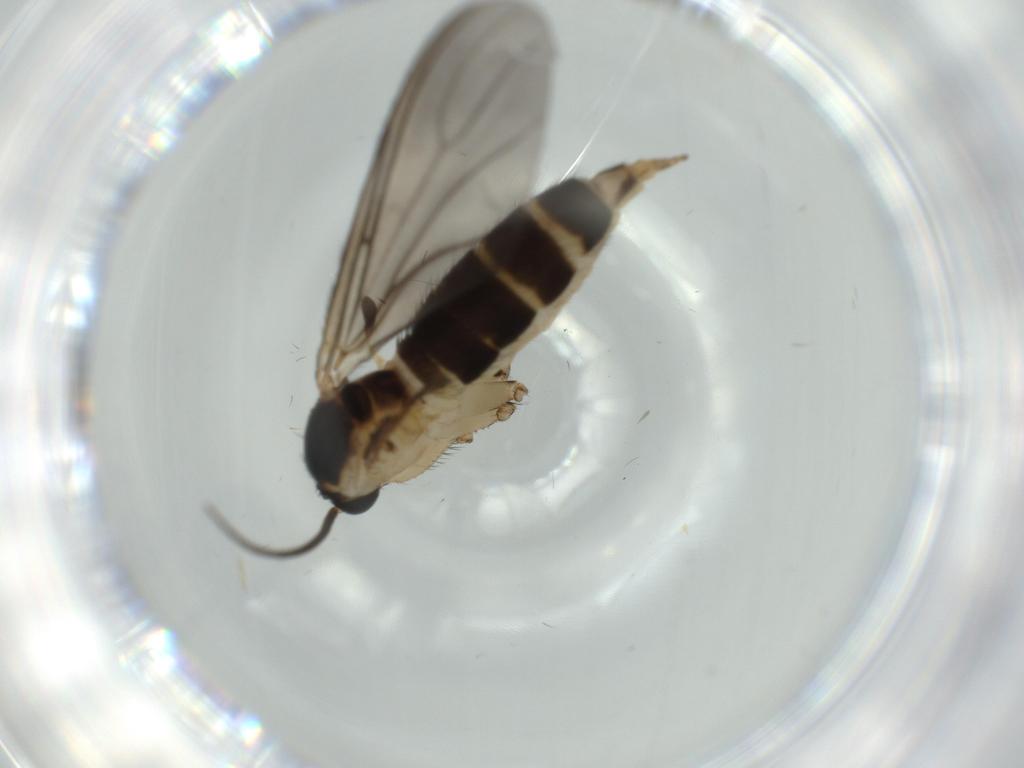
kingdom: Animalia
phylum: Arthropoda
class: Insecta
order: Diptera
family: Sciaridae
